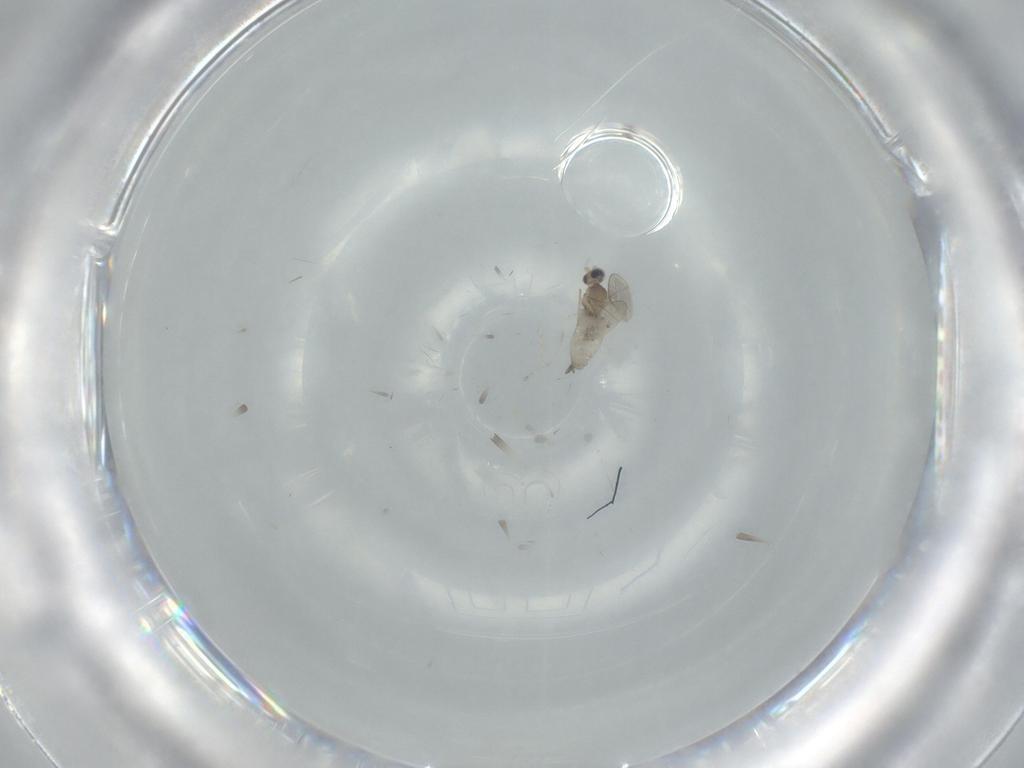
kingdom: Animalia
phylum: Arthropoda
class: Insecta
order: Diptera
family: Cecidomyiidae
